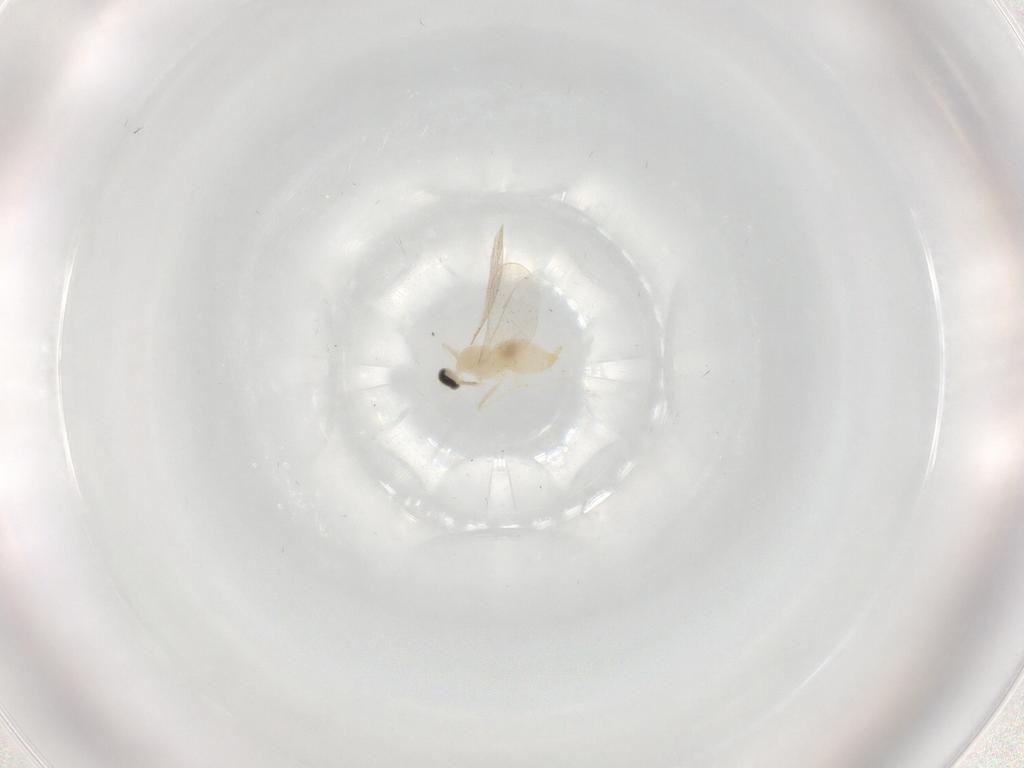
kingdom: Animalia
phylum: Arthropoda
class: Insecta
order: Diptera
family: Cecidomyiidae
